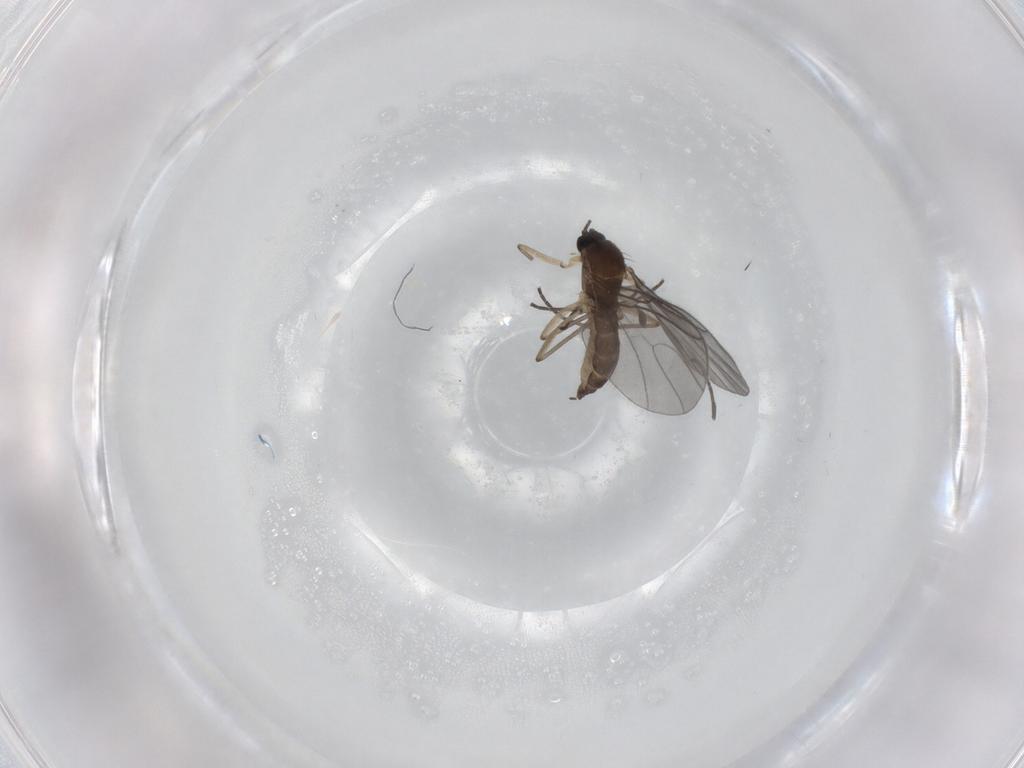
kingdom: Animalia
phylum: Arthropoda
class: Insecta
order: Diptera
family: Sciaridae
